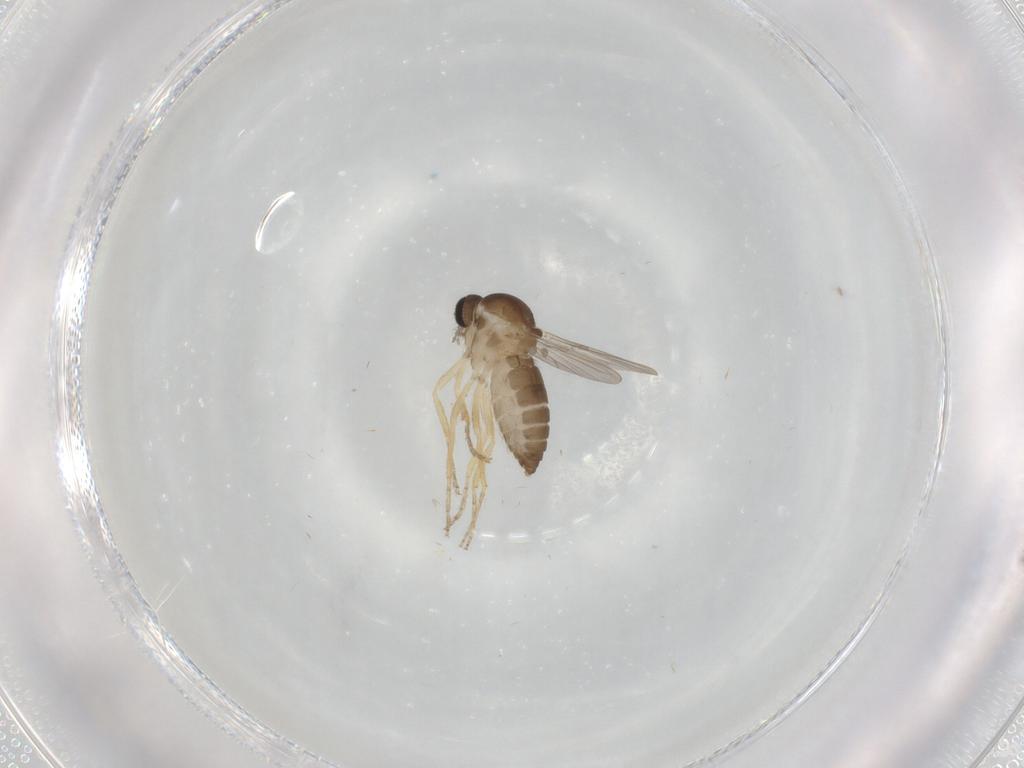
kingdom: Animalia
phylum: Arthropoda
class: Insecta
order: Diptera
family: Ceratopogonidae
